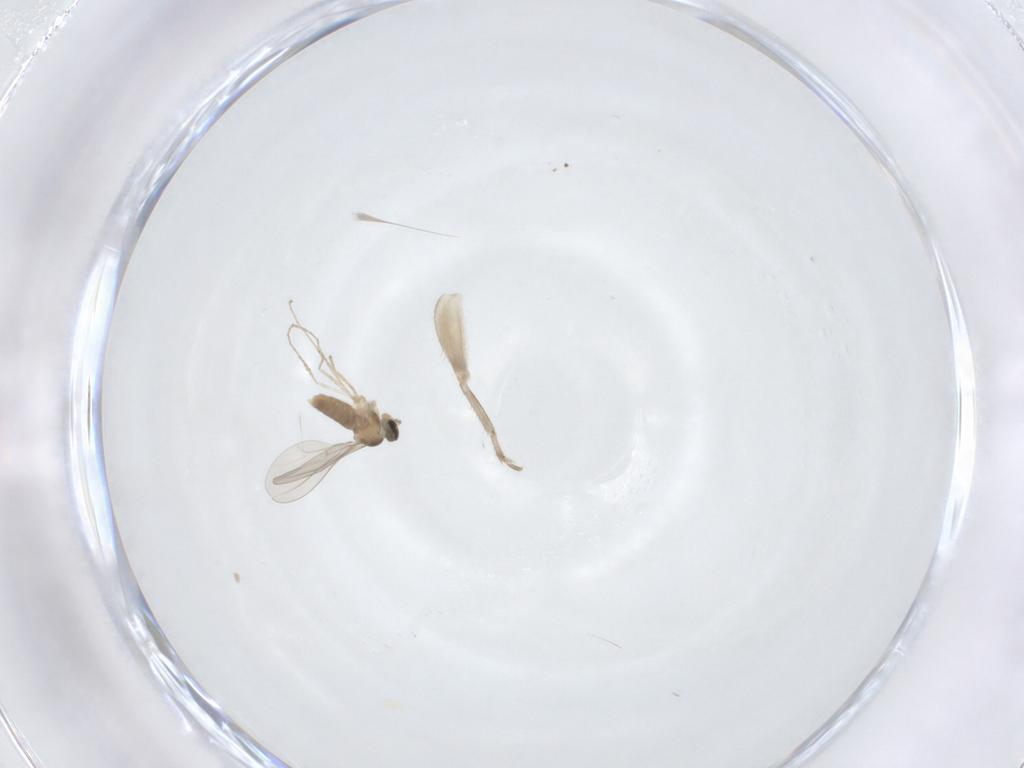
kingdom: Animalia
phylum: Arthropoda
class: Insecta
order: Diptera
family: Cecidomyiidae
